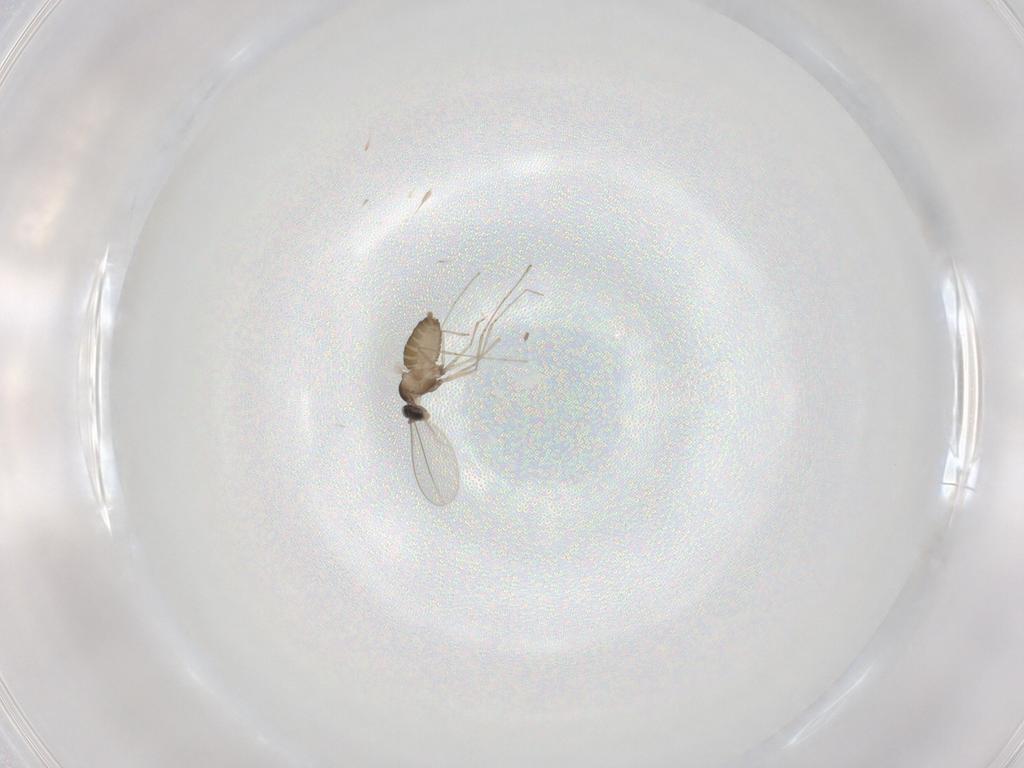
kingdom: Animalia
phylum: Arthropoda
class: Insecta
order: Diptera
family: Cecidomyiidae
